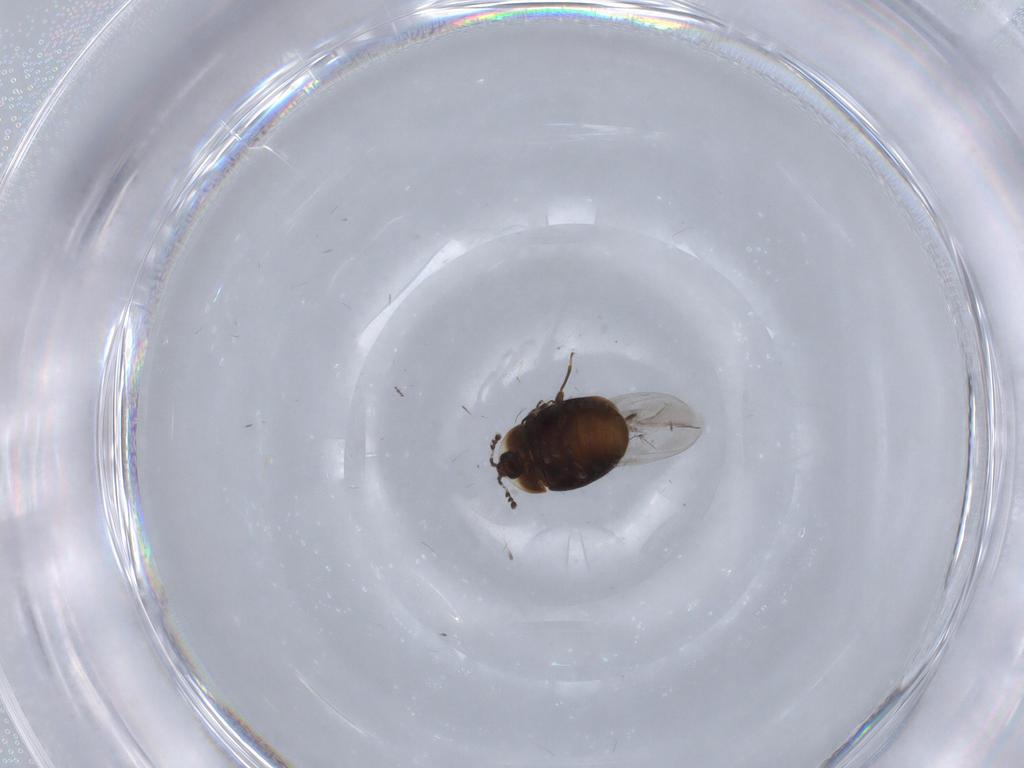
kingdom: Animalia
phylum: Arthropoda
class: Insecta
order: Coleoptera
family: Corylophidae
